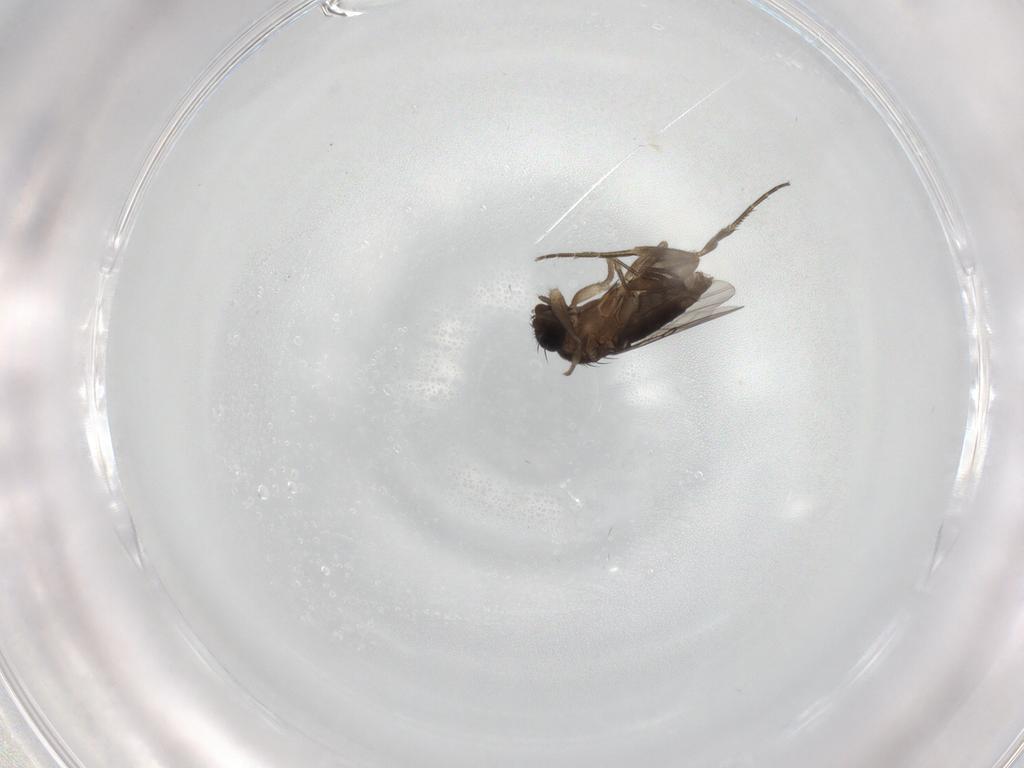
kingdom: Animalia
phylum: Arthropoda
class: Insecta
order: Diptera
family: Phoridae
